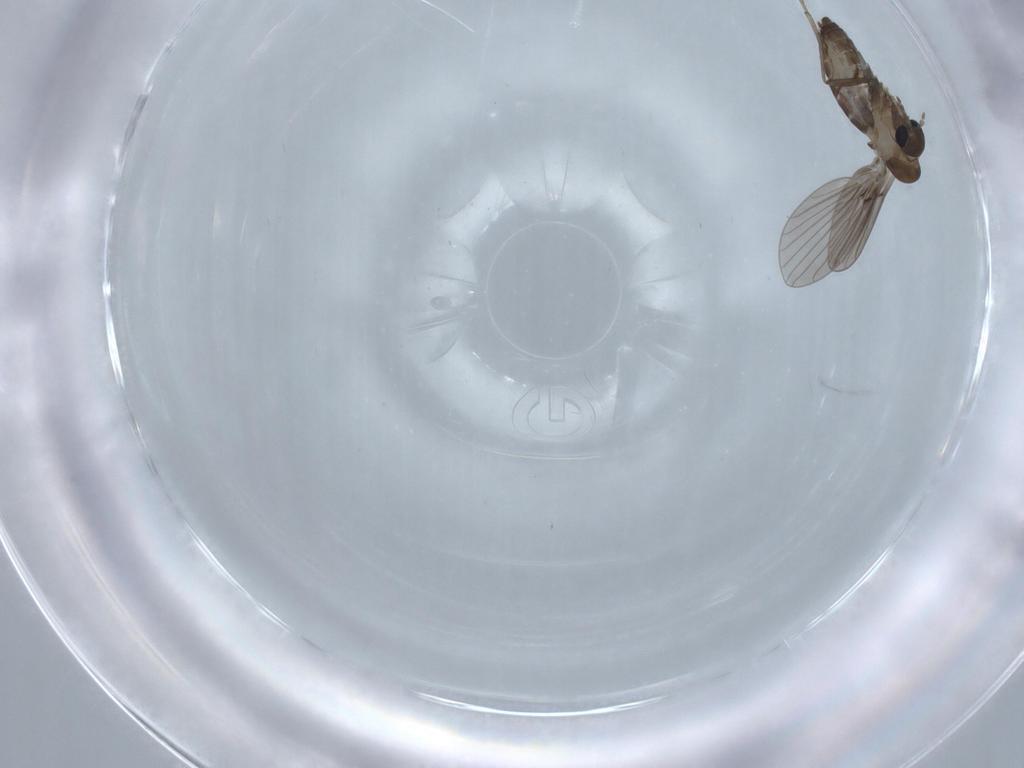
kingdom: Animalia
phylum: Arthropoda
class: Insecta
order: Diptera
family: Psychodidae
